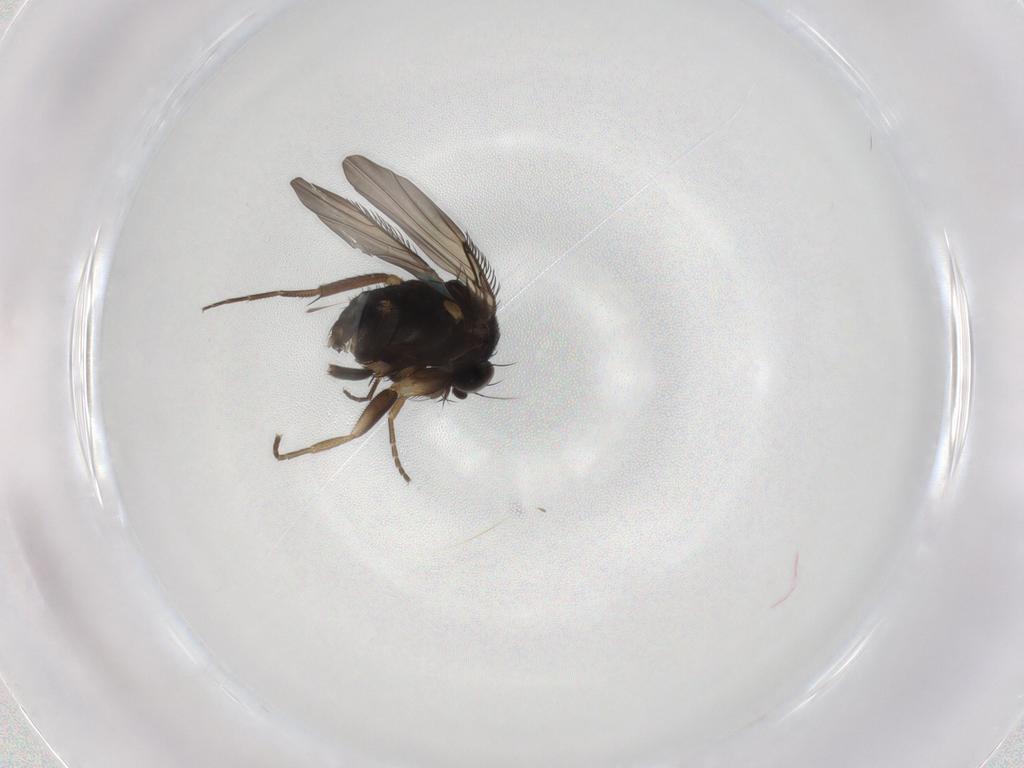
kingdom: Animalia
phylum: Arthropoda
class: Insecta
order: Diptera
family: Phoridae
